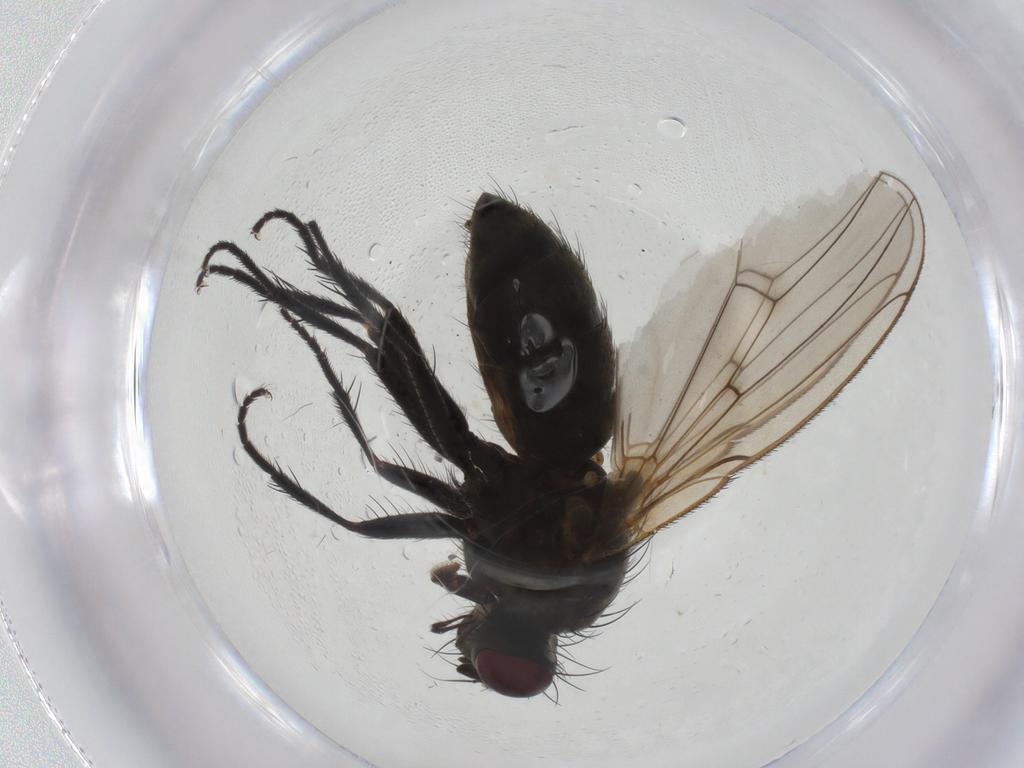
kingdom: Animalia
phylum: Arthropoda
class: Insecta
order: Diptera
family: Muscidae
